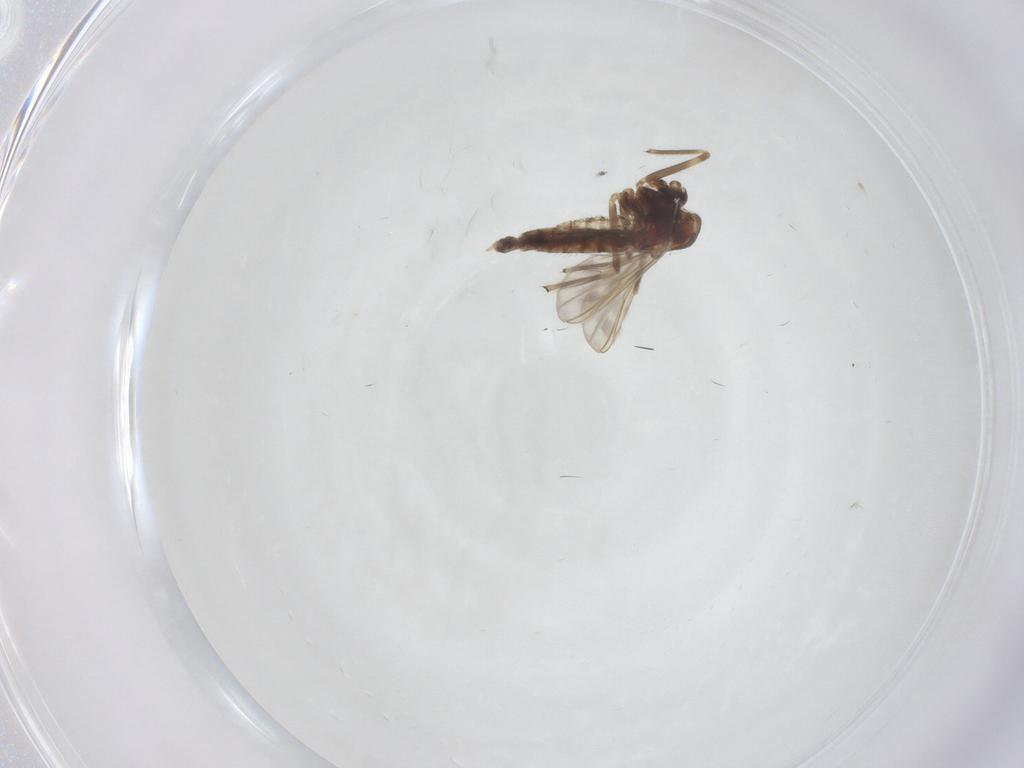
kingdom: Animalia
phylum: Arthropoda
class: Insecta
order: Diptera
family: Chironomidae
